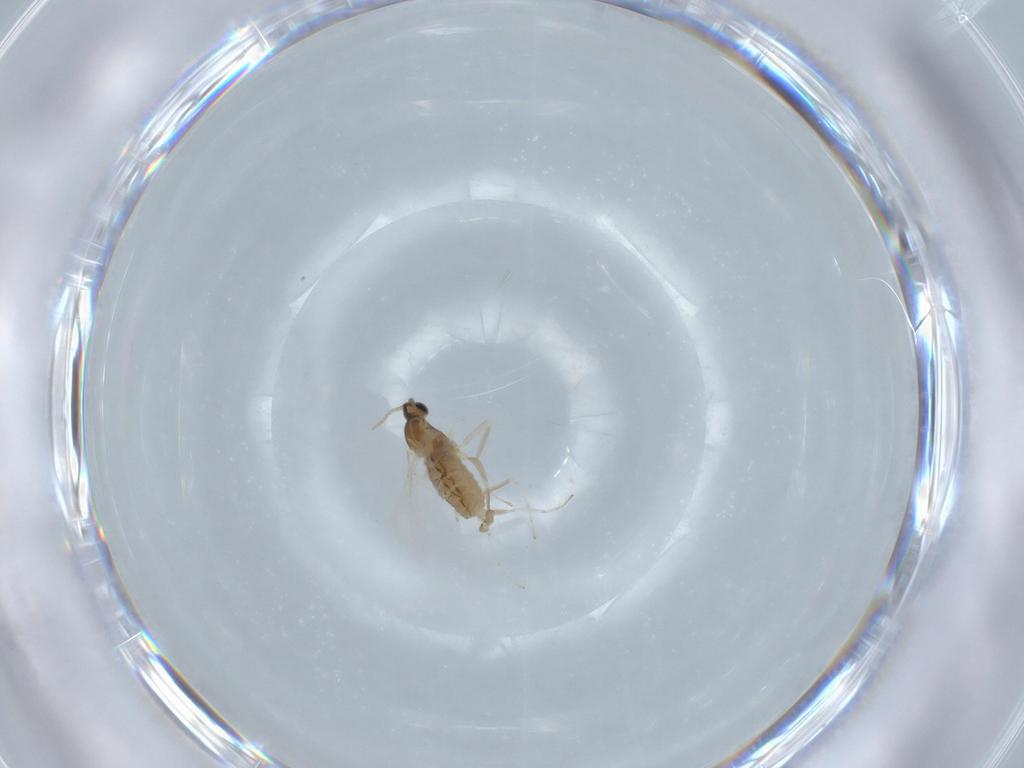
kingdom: Animalia
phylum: Arthropoda
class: Insecta
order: Diptera
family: Cecidomyiidae
